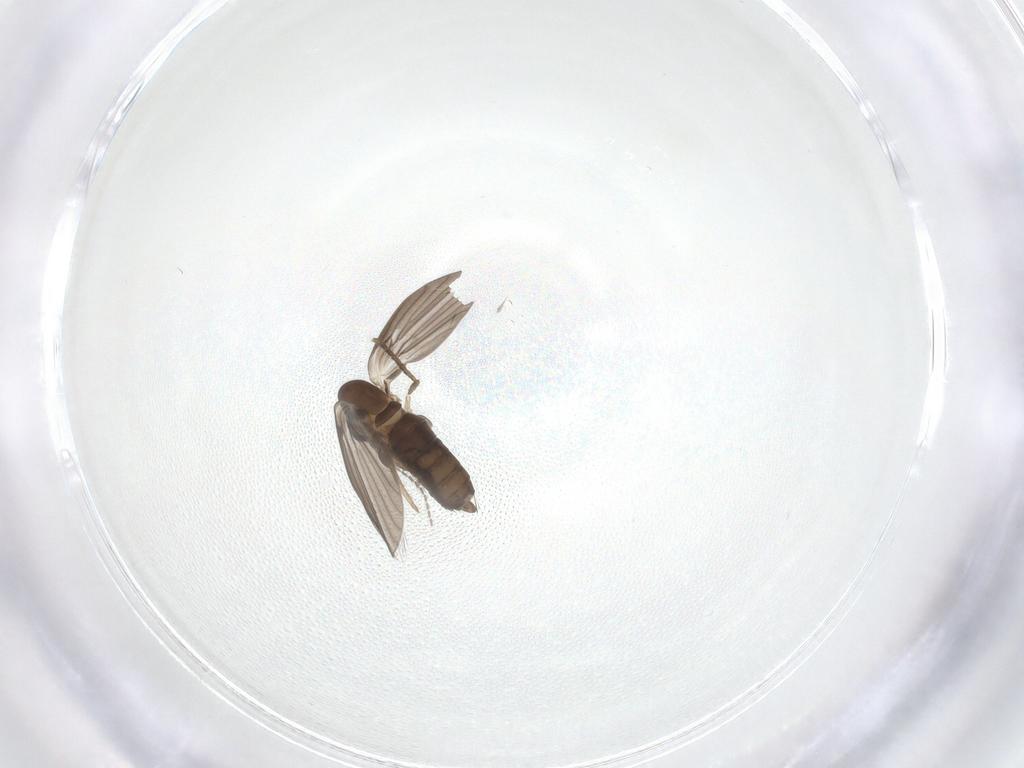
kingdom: Animalia
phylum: Arthropoda
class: Insecta
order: Diptera
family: Psychodidae
